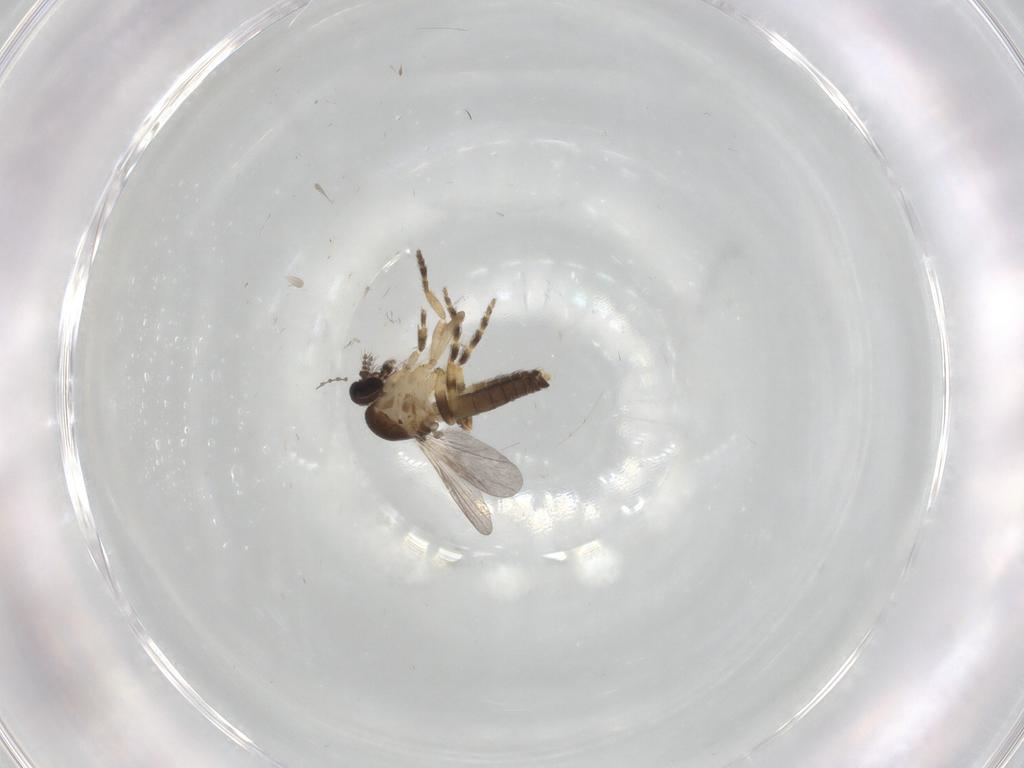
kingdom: Animalia
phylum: Arthropoda
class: Insecta
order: Diptera
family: Ceratopogonidae
